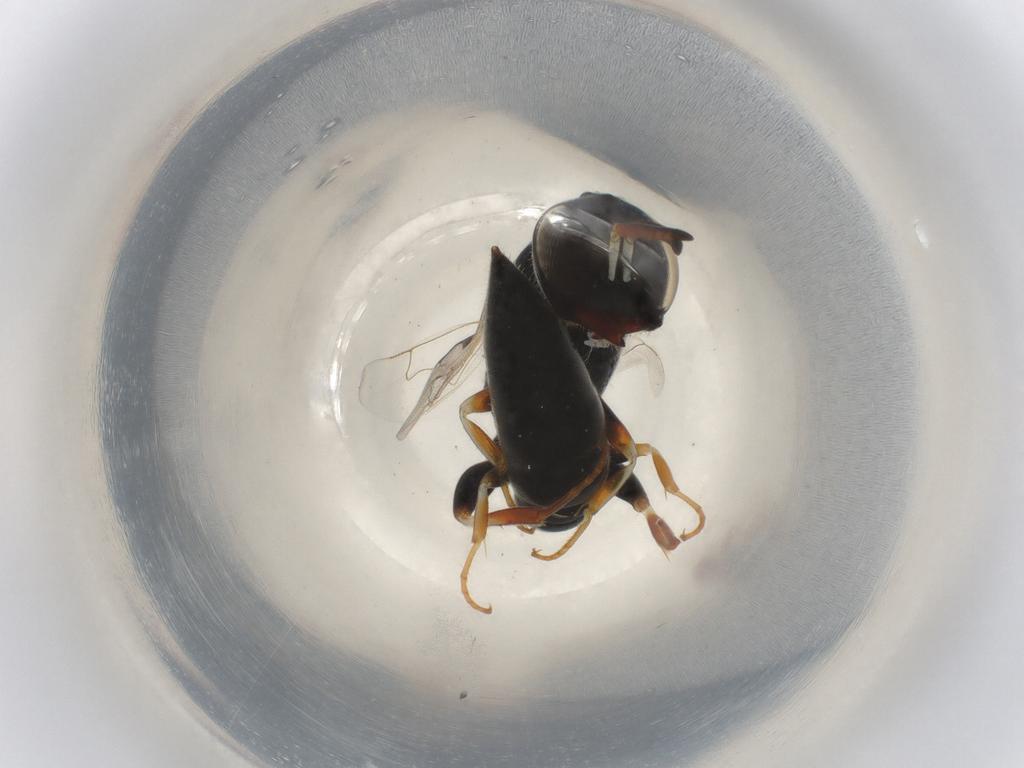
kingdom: Animalia
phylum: Arthropoda
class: Insecta
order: Hymenoptera
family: Pemphredonidae
